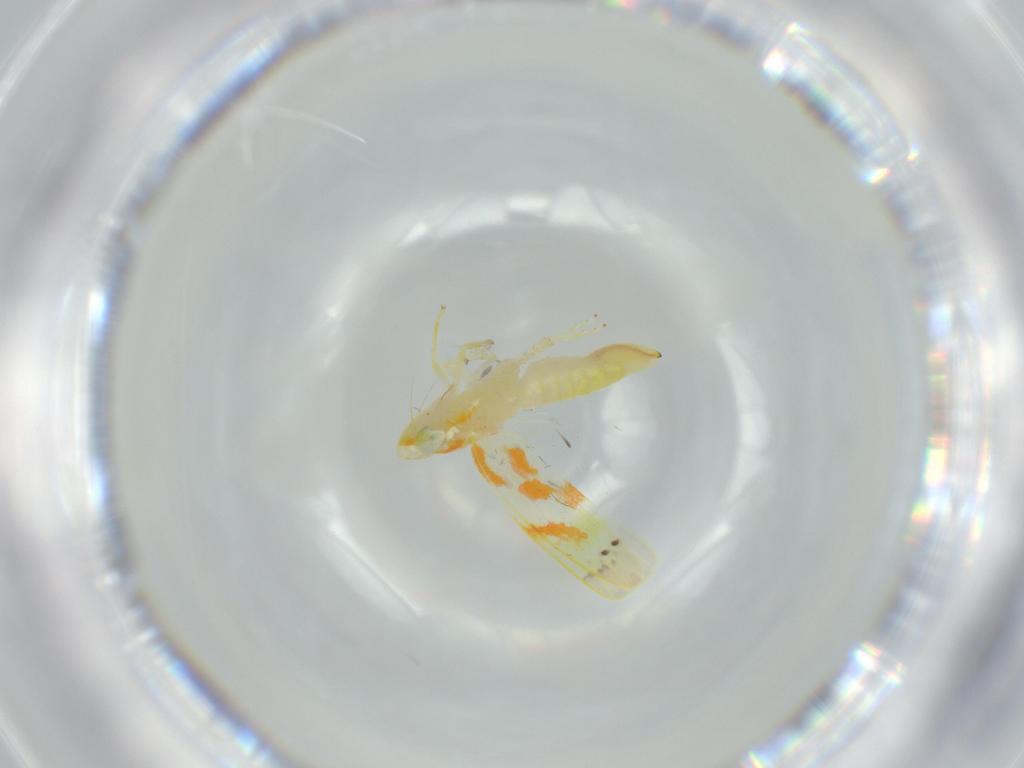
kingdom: Animalia
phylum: Arthropoda
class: Insecta
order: Hemiptera
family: Cicadellidae
